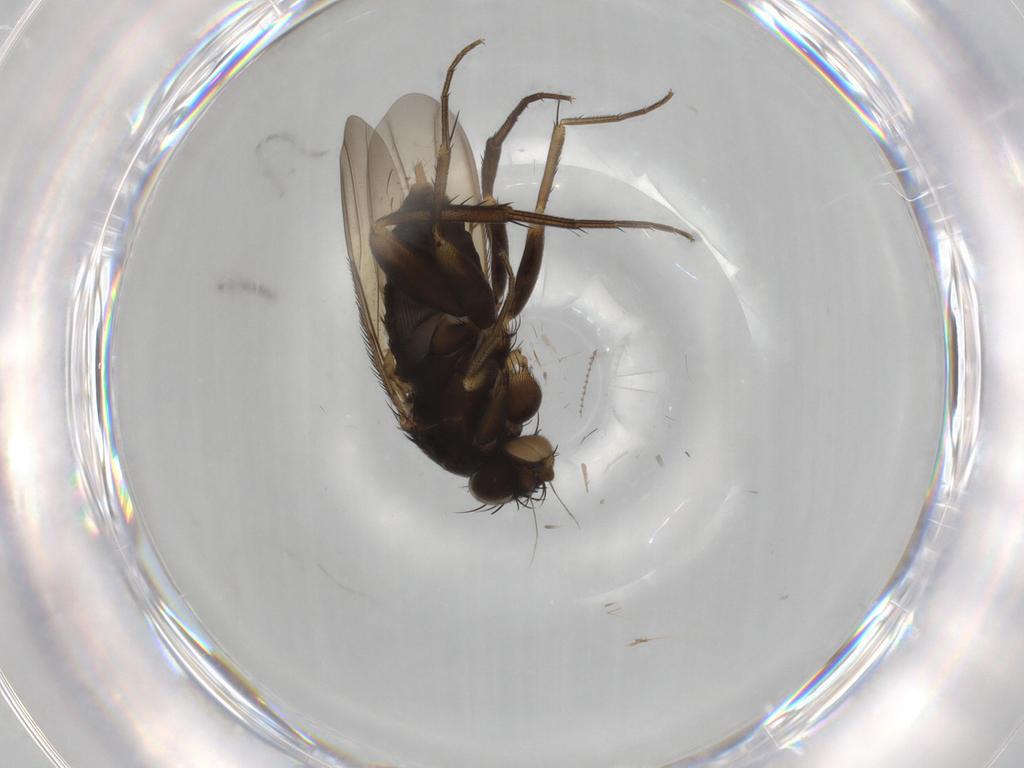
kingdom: Animalia
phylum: Arthropoda
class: Insecta
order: Diptera
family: Phoridae
